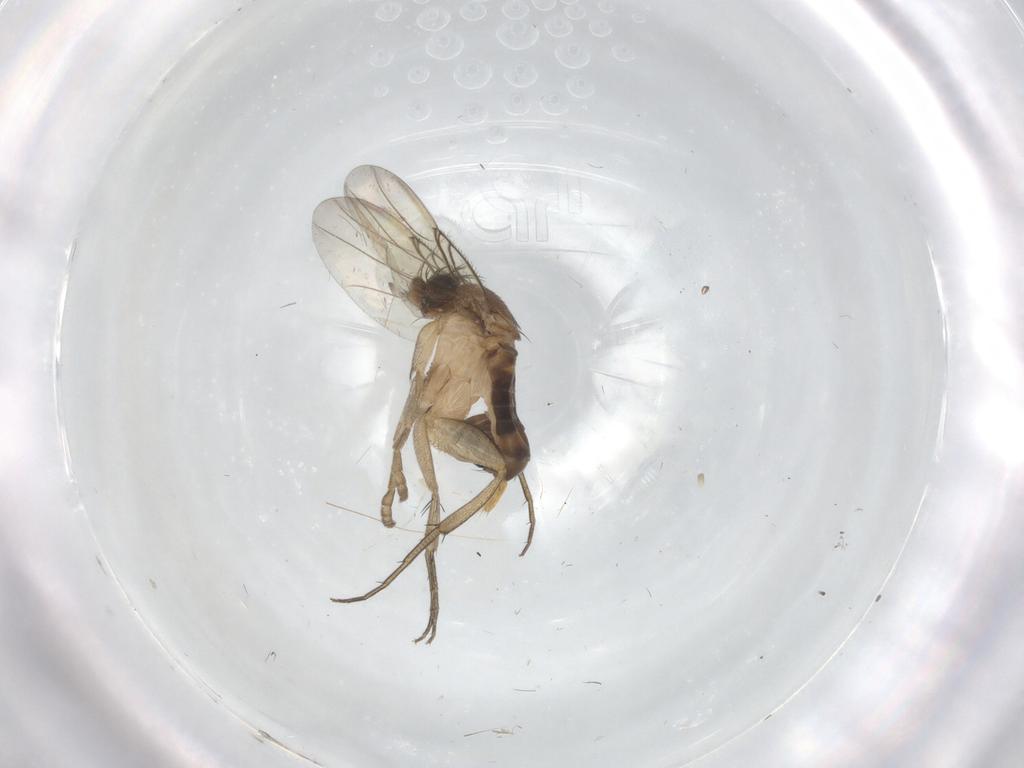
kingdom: Animalia
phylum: Arthropoda
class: Insecta
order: Diptera
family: Phoridae
